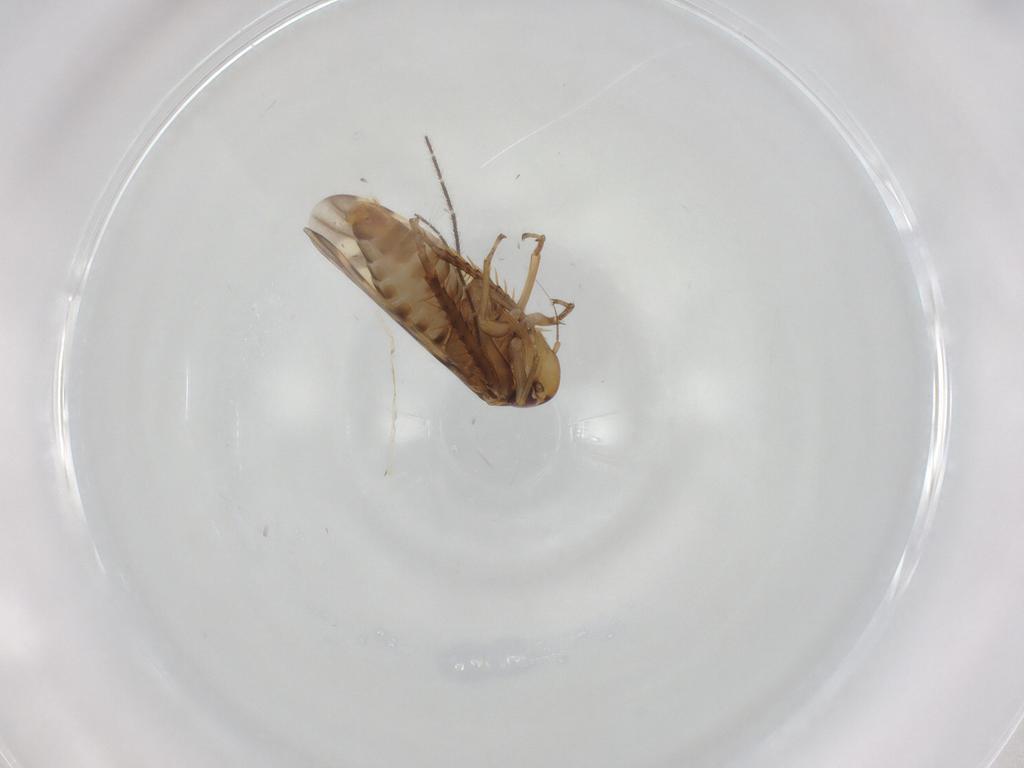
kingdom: Animalia
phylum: Arthropoda
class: Insecta
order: Hemiptera
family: Cicadellidae
